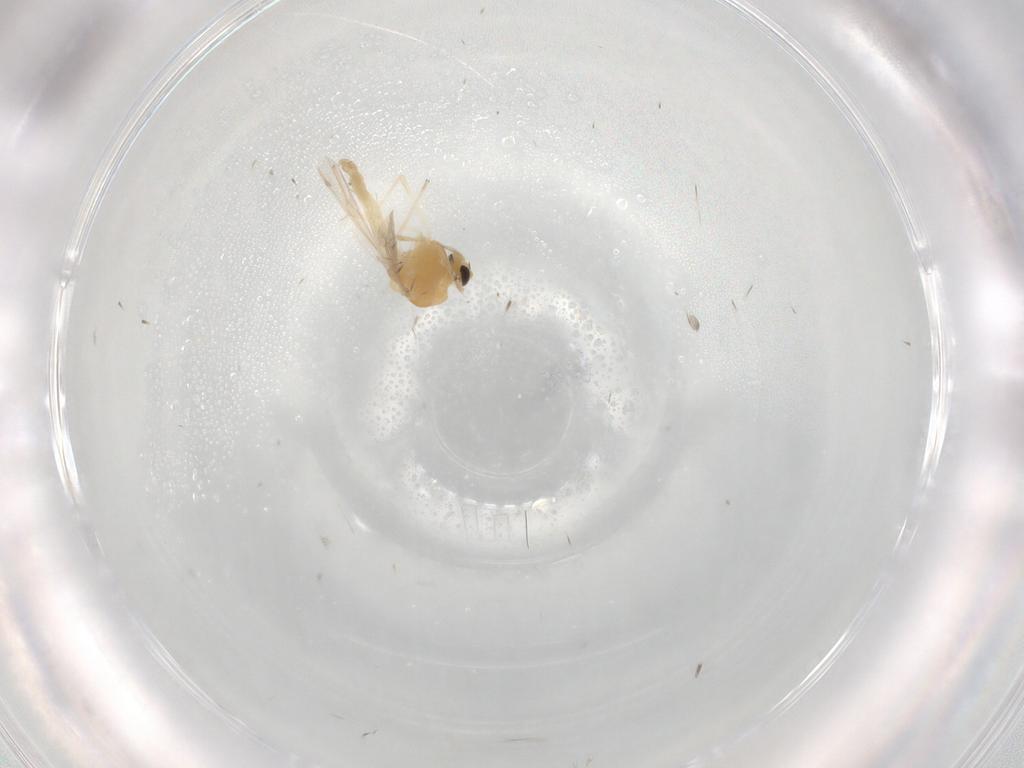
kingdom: Animalia
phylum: Arthropoda
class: Insecta
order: Diptera
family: Chironomidae
